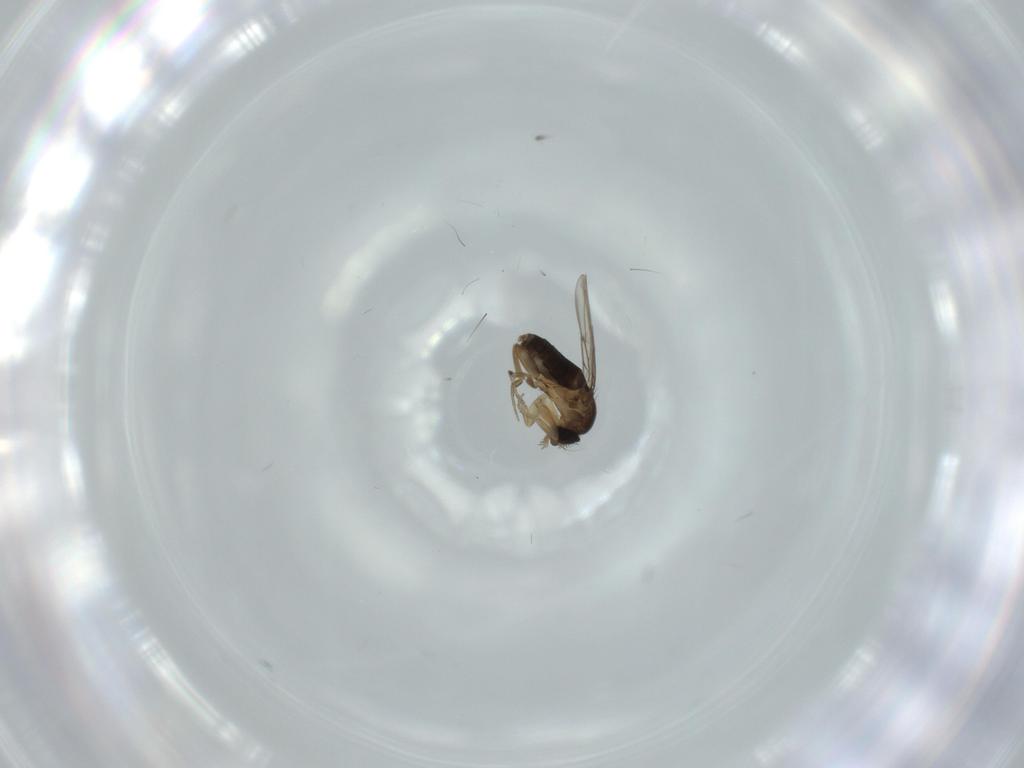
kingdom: Animalia
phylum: Arthropoda
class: Insecta
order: Diptera
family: Phoridae
